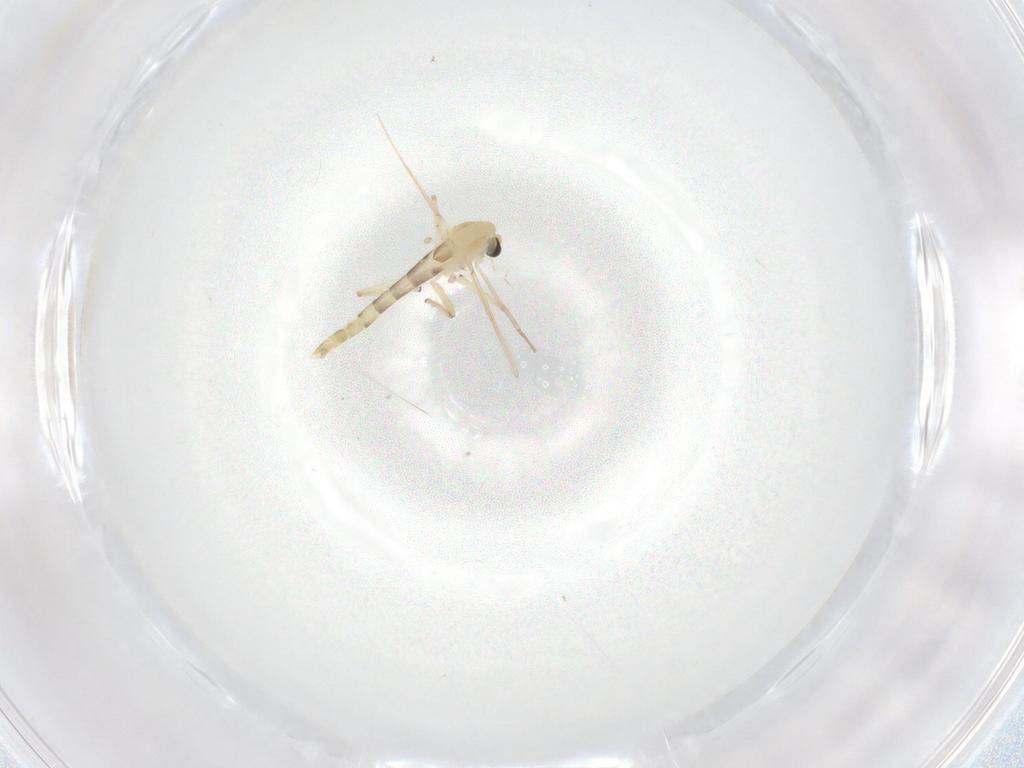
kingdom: Animalia
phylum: Arthropoda
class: Insecta
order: Diptera
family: Chironomidae
